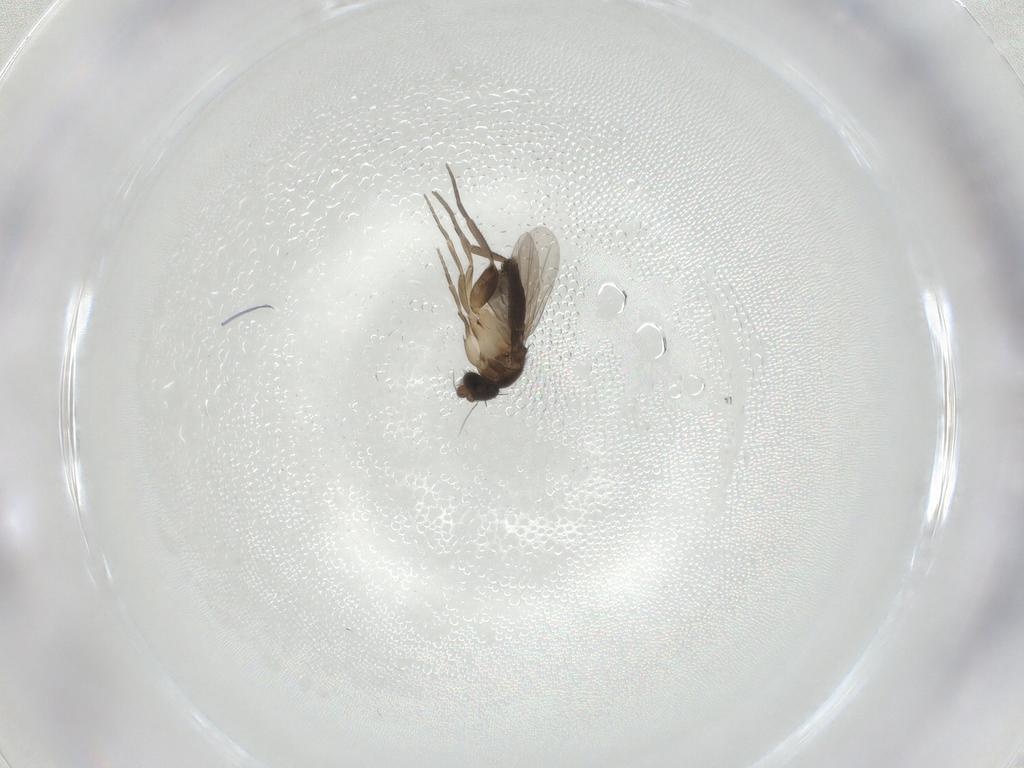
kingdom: Animalia
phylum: Arthropoda
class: Insecta
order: Diptera
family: Phoridae
